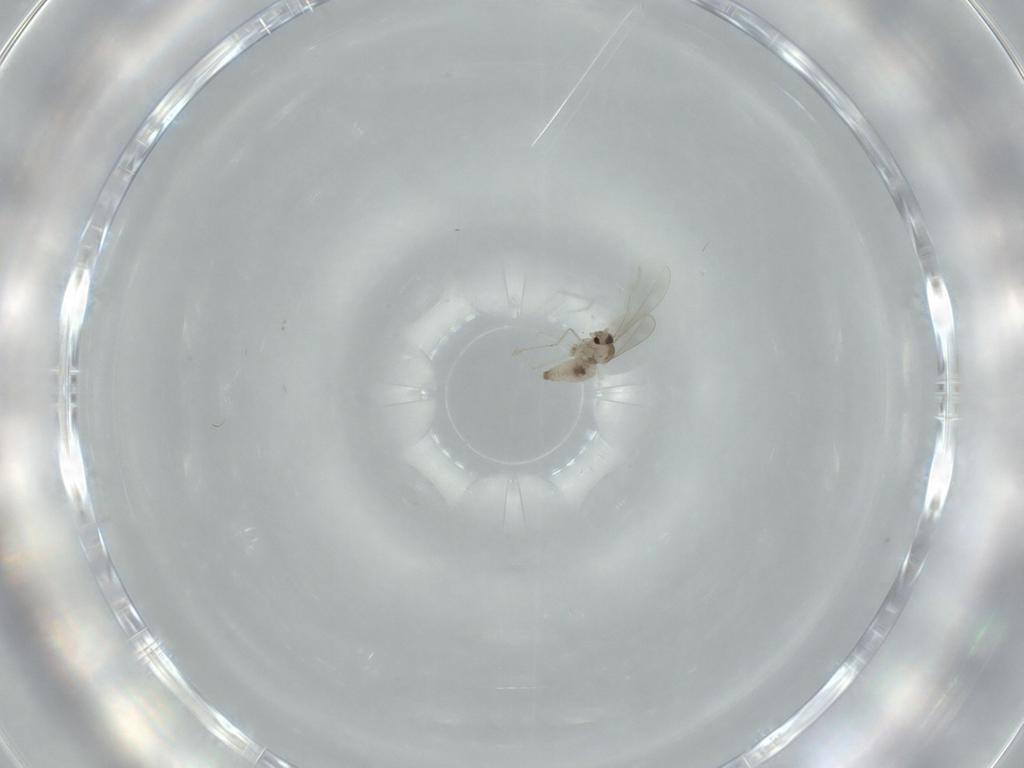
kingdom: Animalia
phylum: Arthropoda
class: Insecta
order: Diptera
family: Cecidomyiidae
